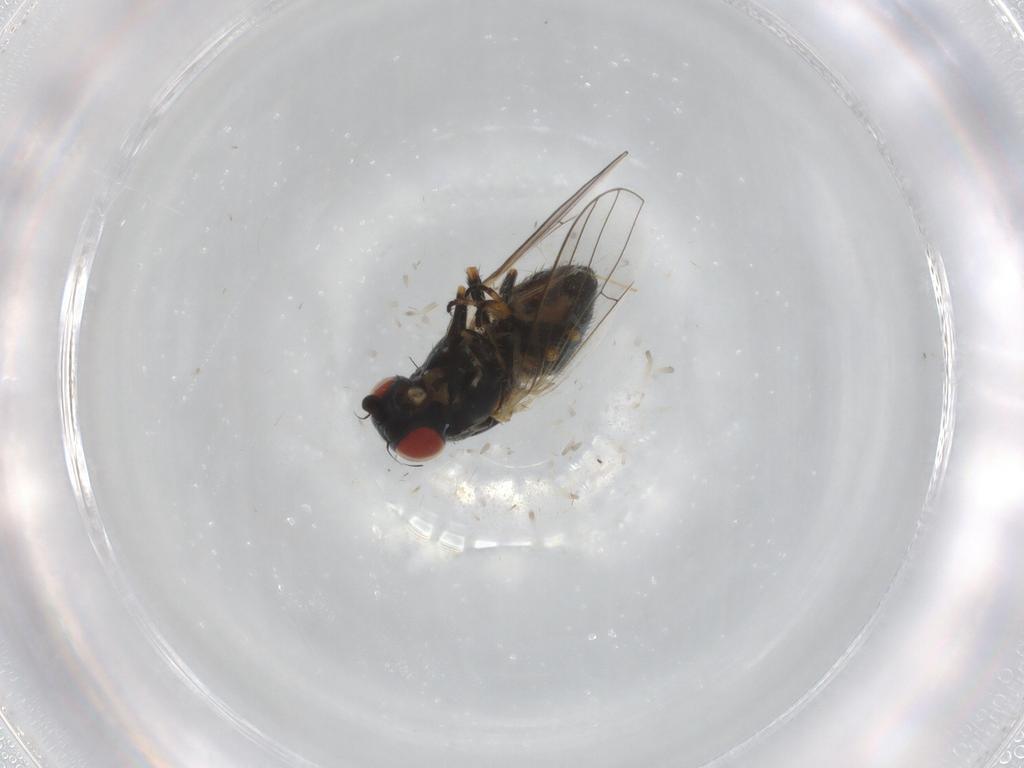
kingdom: Animalia
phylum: Arthropoda
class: Insecta
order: Diptera
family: Chamaemyiidae
